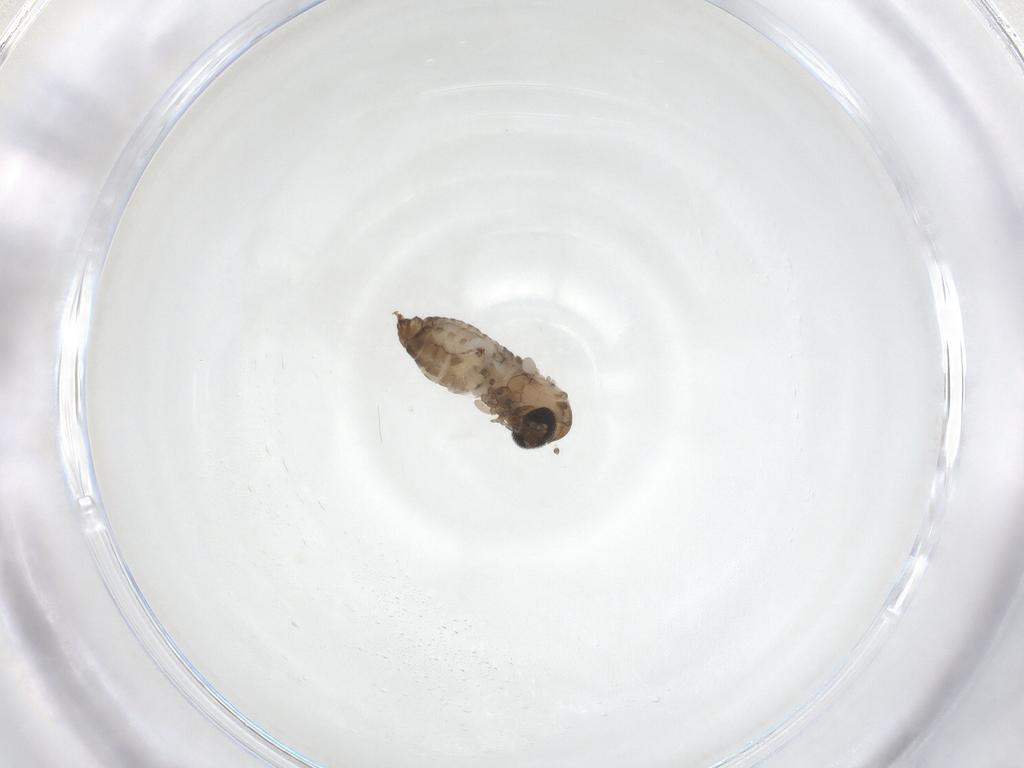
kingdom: Animalia
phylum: Arthropoda
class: Insecta
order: Diptera
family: Psychodidae
